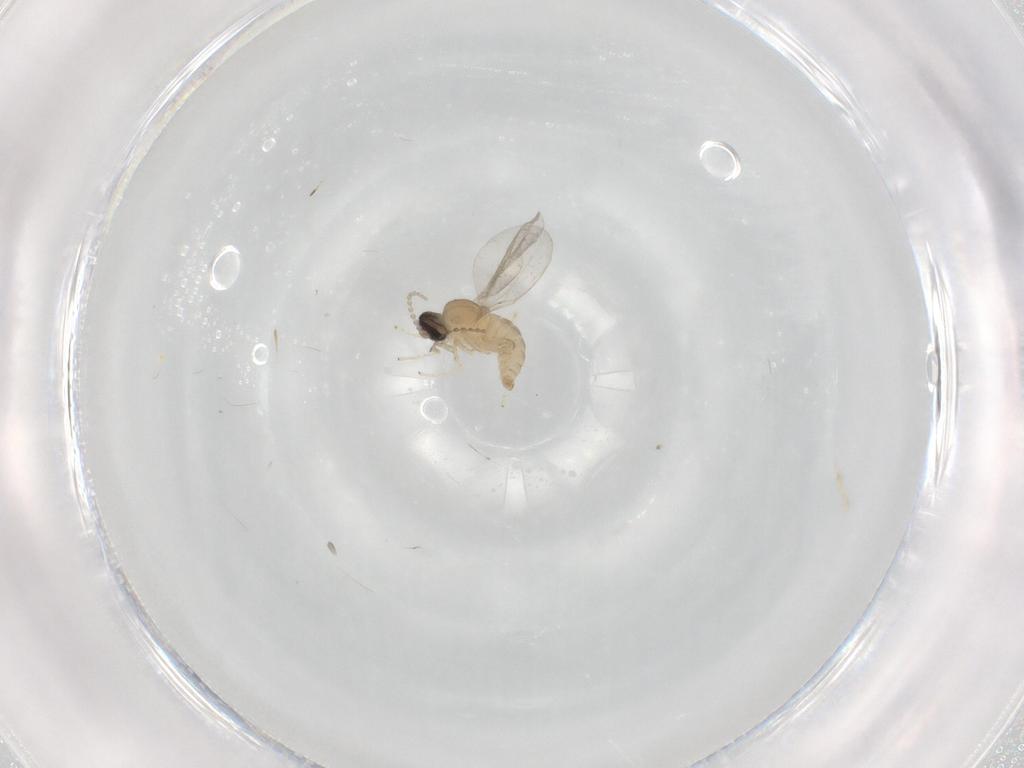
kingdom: Animalia
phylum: Arthropoda
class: Insecta
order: Diptera
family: Cecidomyiidae
